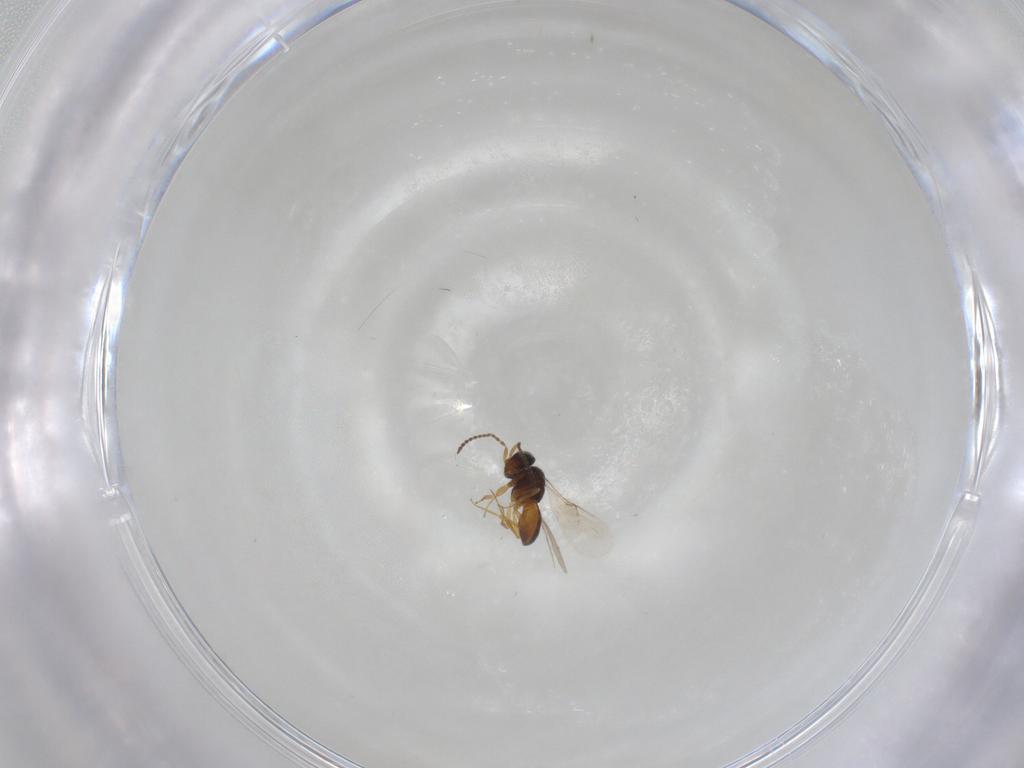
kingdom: Animalia
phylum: Arthropoda
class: Insecta
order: Hymenoptera
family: Scelionidae
